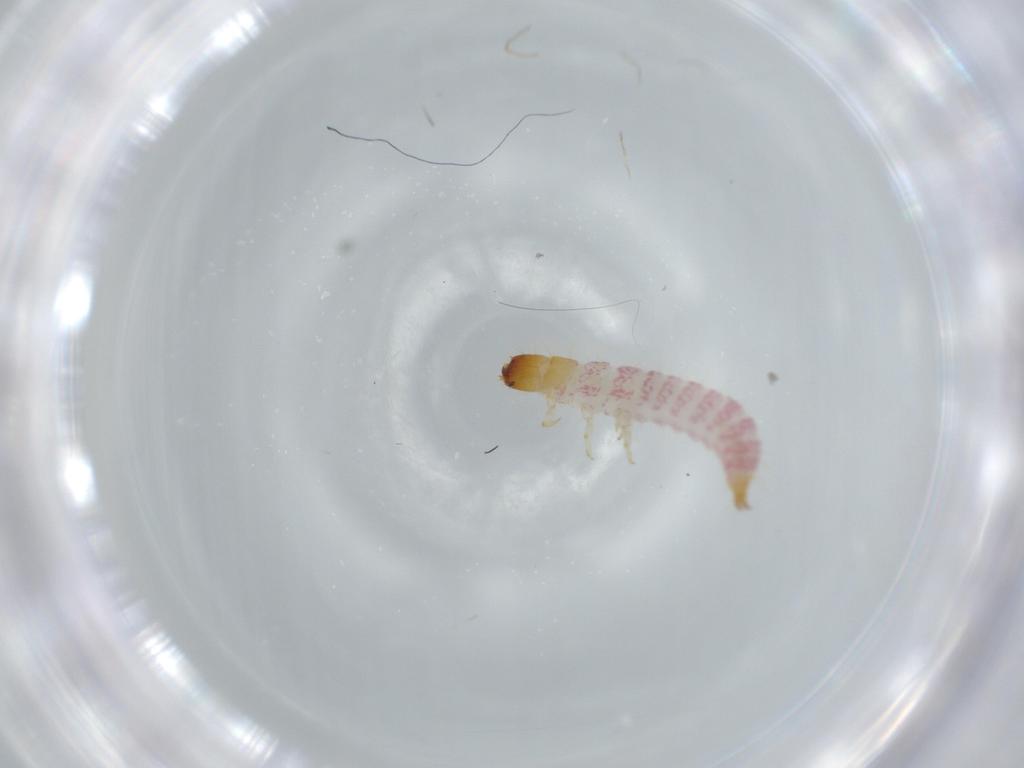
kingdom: Animalia
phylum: Arthropoda
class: Insecta
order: Coleoptera
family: Cleridae
